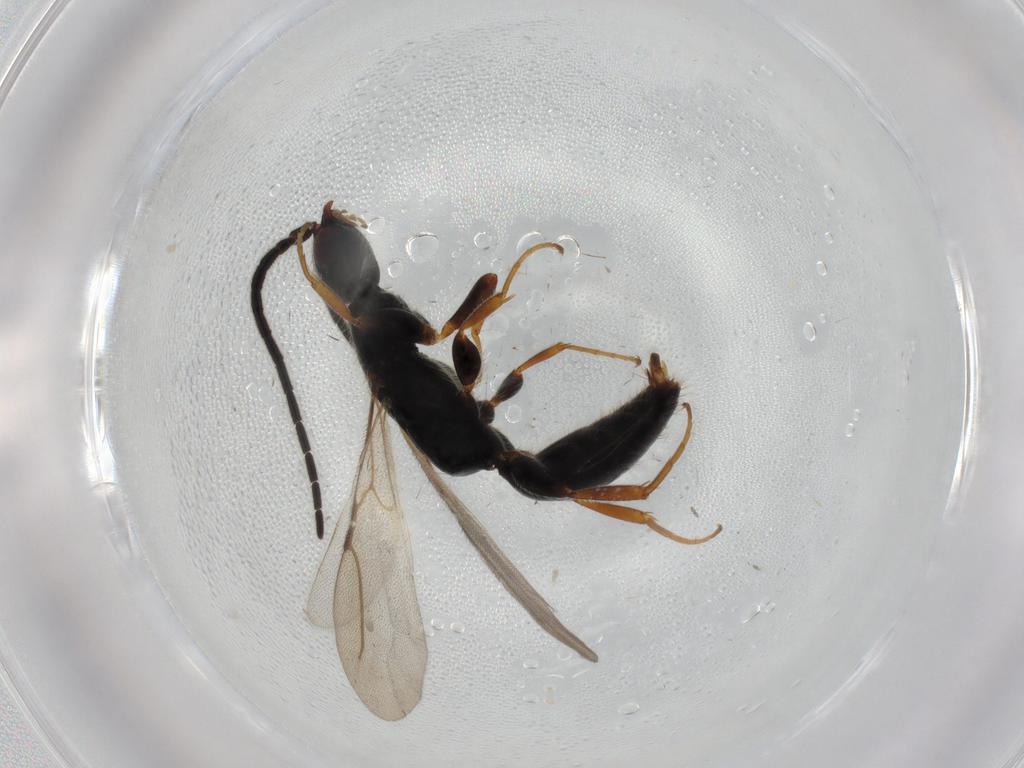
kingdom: Animalia
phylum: Arthropoda
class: Insecta
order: Hymenoptera
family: Bethylidae
